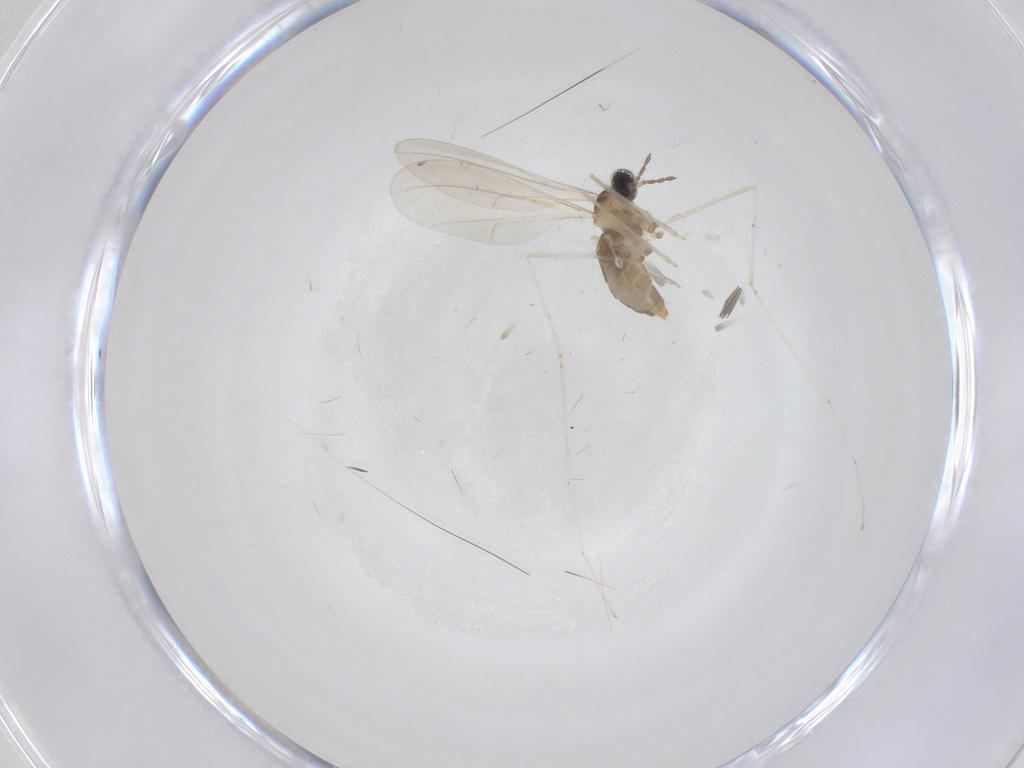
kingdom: Animalia
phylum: Arthropoda
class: Insecta
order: Diptera
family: Cecidomyiidae
